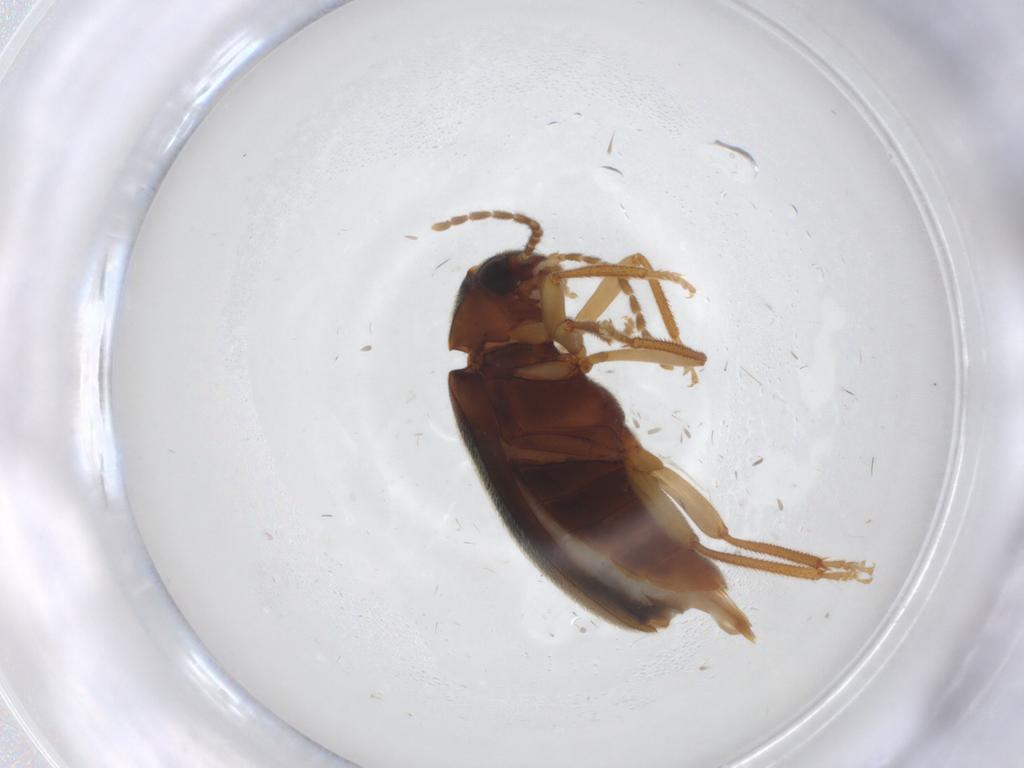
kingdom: Animalia
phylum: Arthropoda
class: Insecta
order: Coleoptera
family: Ptilodactylidae
